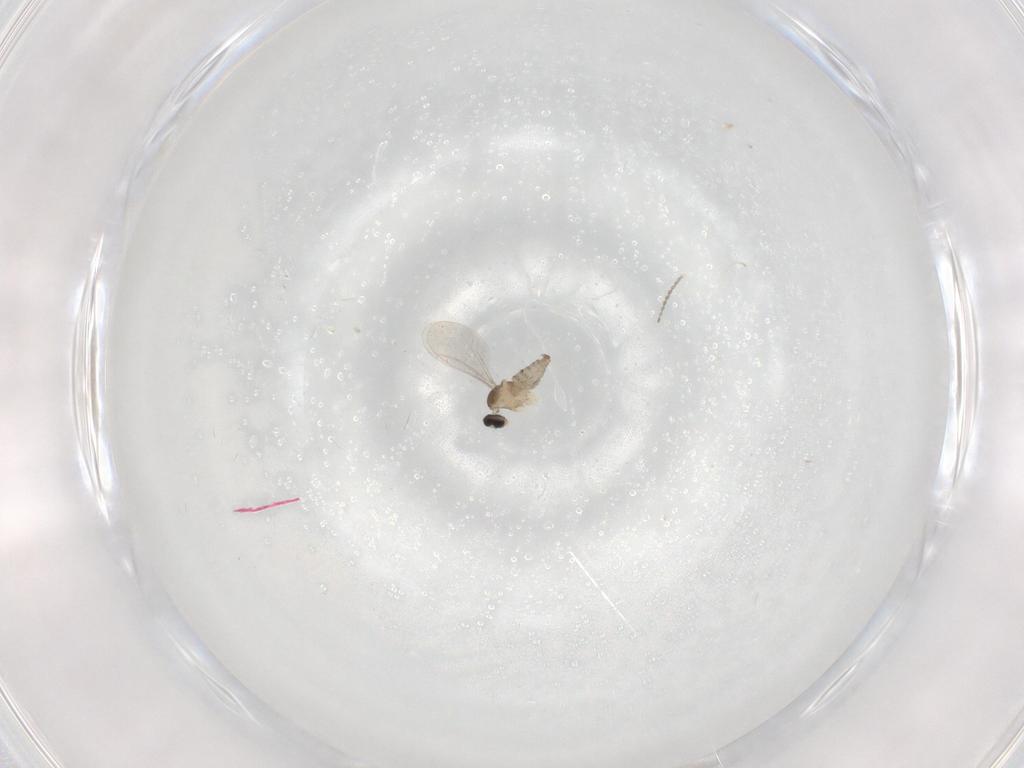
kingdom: Animalia
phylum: Arthropoda
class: Insecta
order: Diptera
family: Cecidomyiidae
